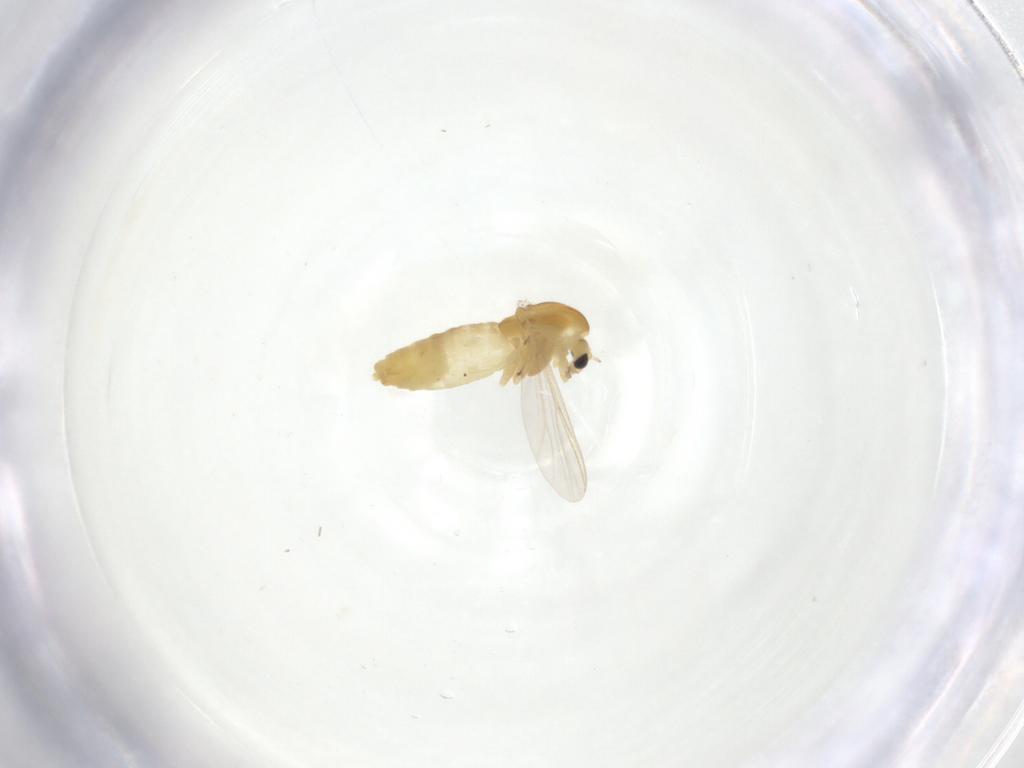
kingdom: Animalia
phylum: Arthropoda
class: Insecta
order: Diptera
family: Chironomidae
